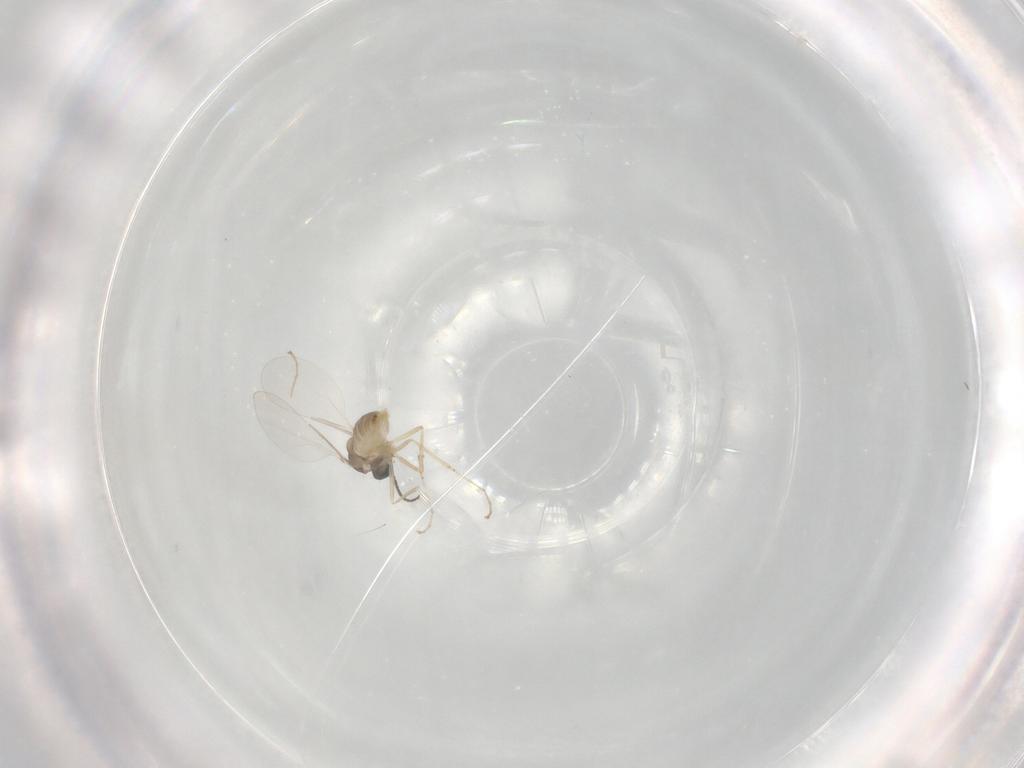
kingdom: Animalia
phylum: Arthropoda
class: Insecta
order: Diptera
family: Cecidomyiidae
